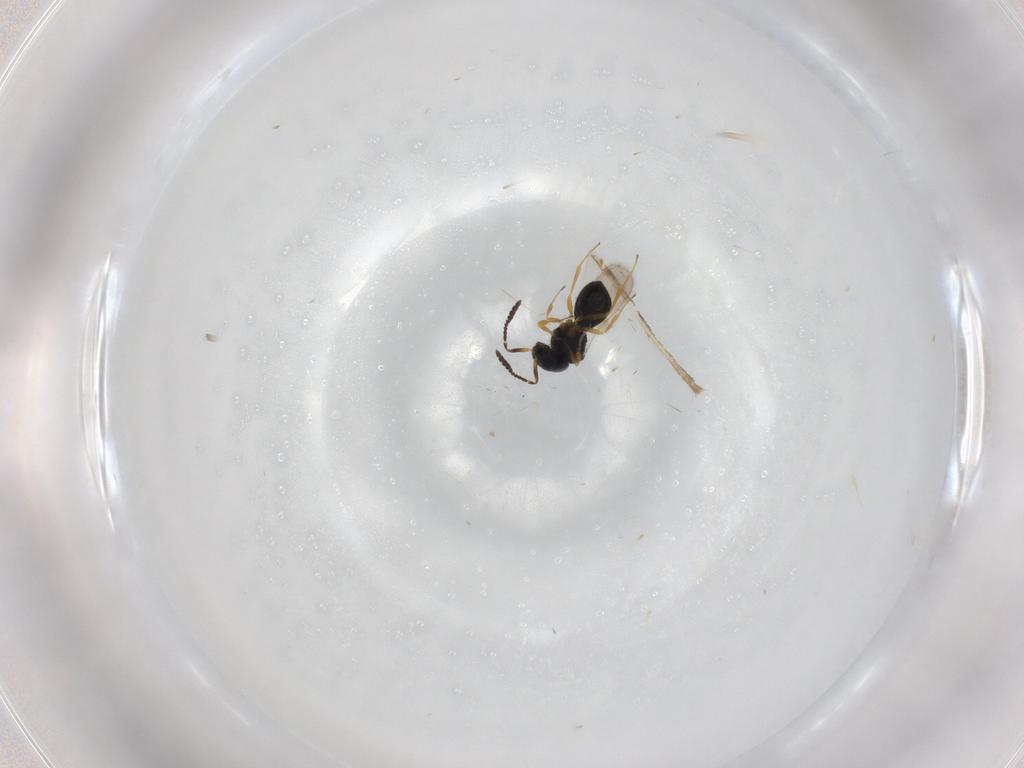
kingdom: Animalia
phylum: Arthropoda
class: Insecta
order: Hymenoptera
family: Scelionidae
